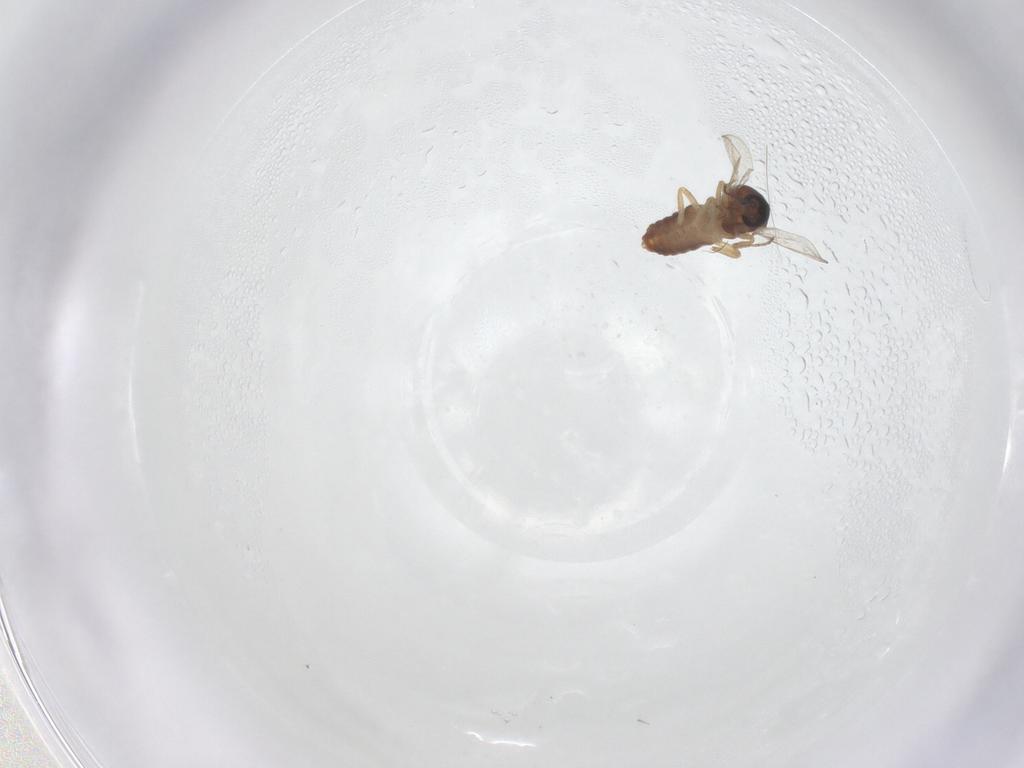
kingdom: Animalia
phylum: Arthropoda
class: Insecta
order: Diptera
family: Ceratopogonidae
